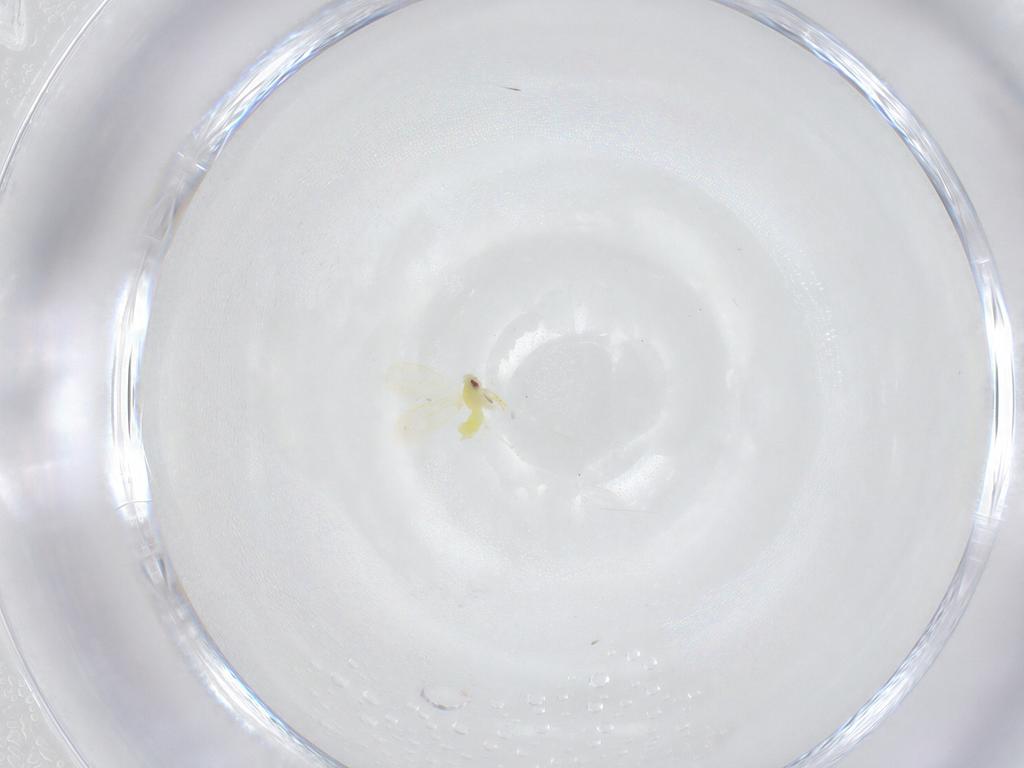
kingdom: Animalia
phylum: Arthropoda
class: Insecta
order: Hemiptera
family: Aleyrodidae
